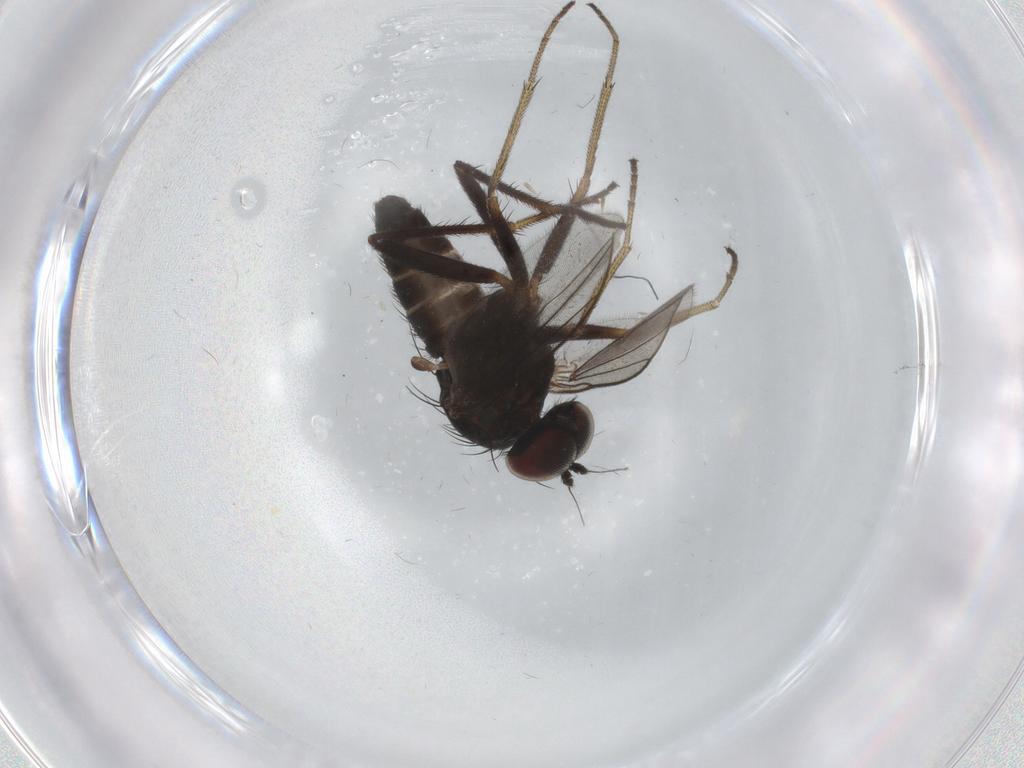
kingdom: Animalia
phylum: Arthropoda
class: Insecta
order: Diptera
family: Dolichopodidae
